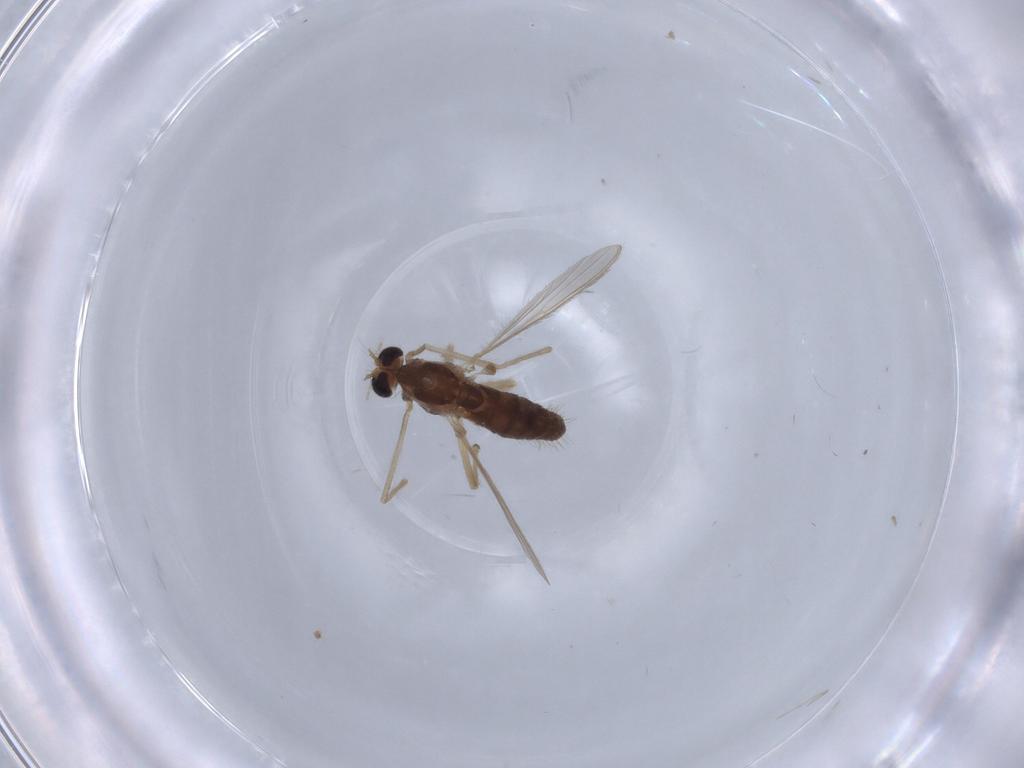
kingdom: Animalia
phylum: Arthropoda
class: Insecta
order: Diptera
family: Chironomidae
